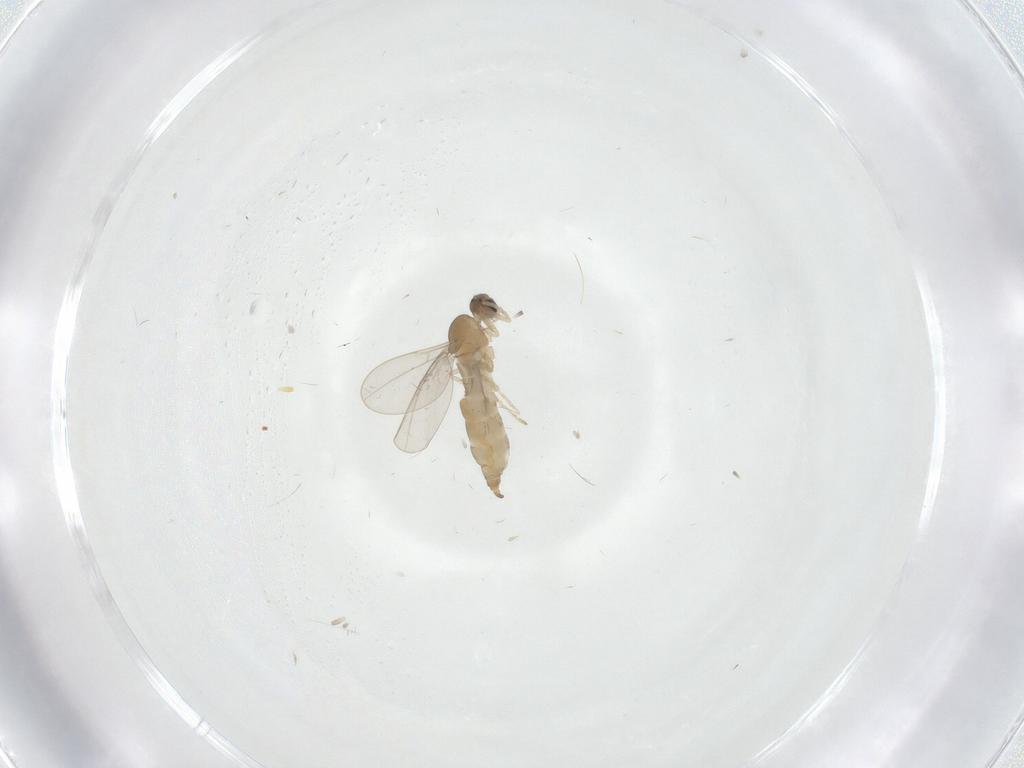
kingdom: Animalia
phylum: Arthropoda
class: Insecta
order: Diptera
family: Cecidomyiidae
